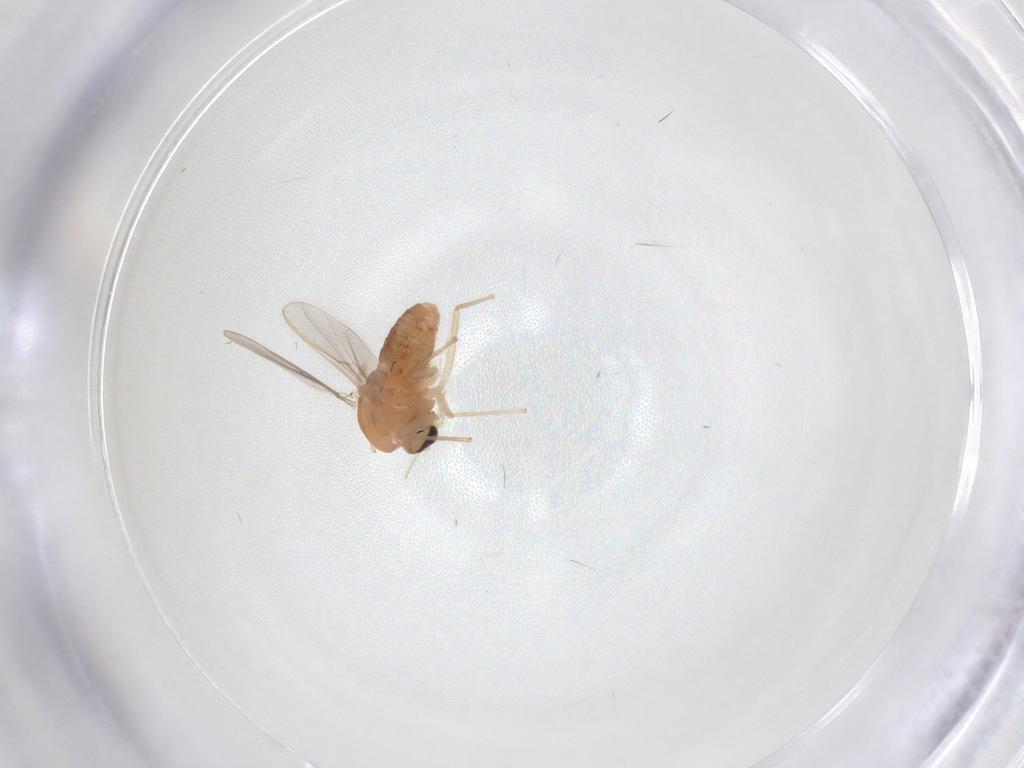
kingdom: Animalia
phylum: Arthropoda
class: Insecta
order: Diptera
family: Chironomidae
